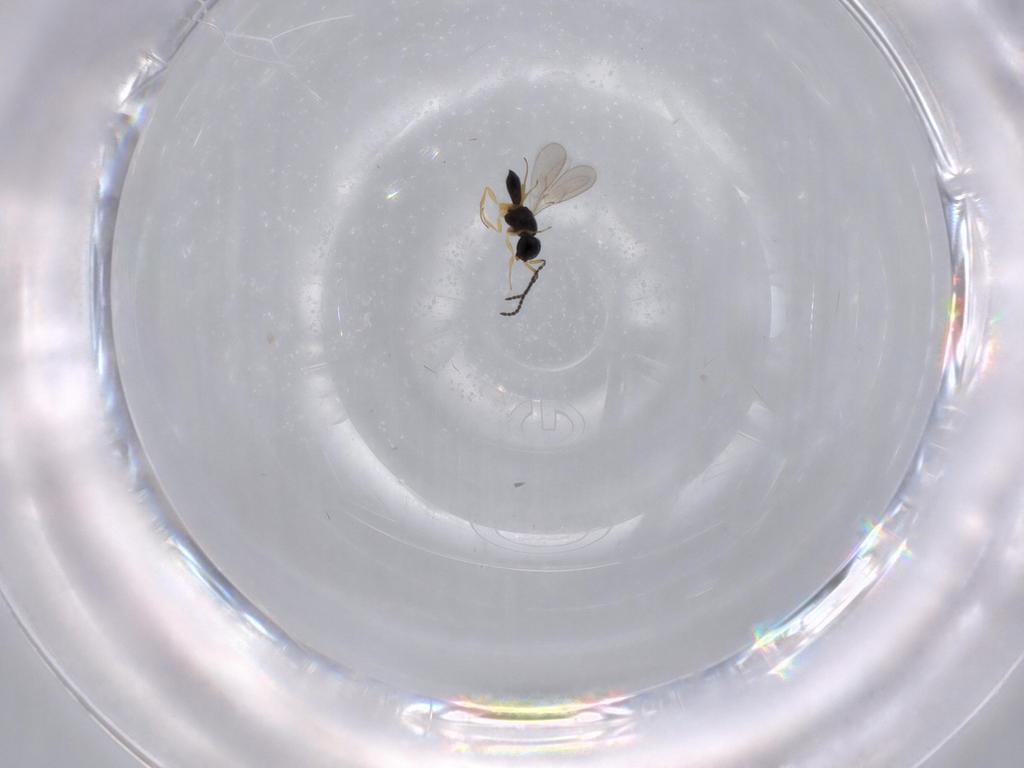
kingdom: Animalia
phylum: Arthropoda
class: Insecta
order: Hymenoptera
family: Scelionidae
